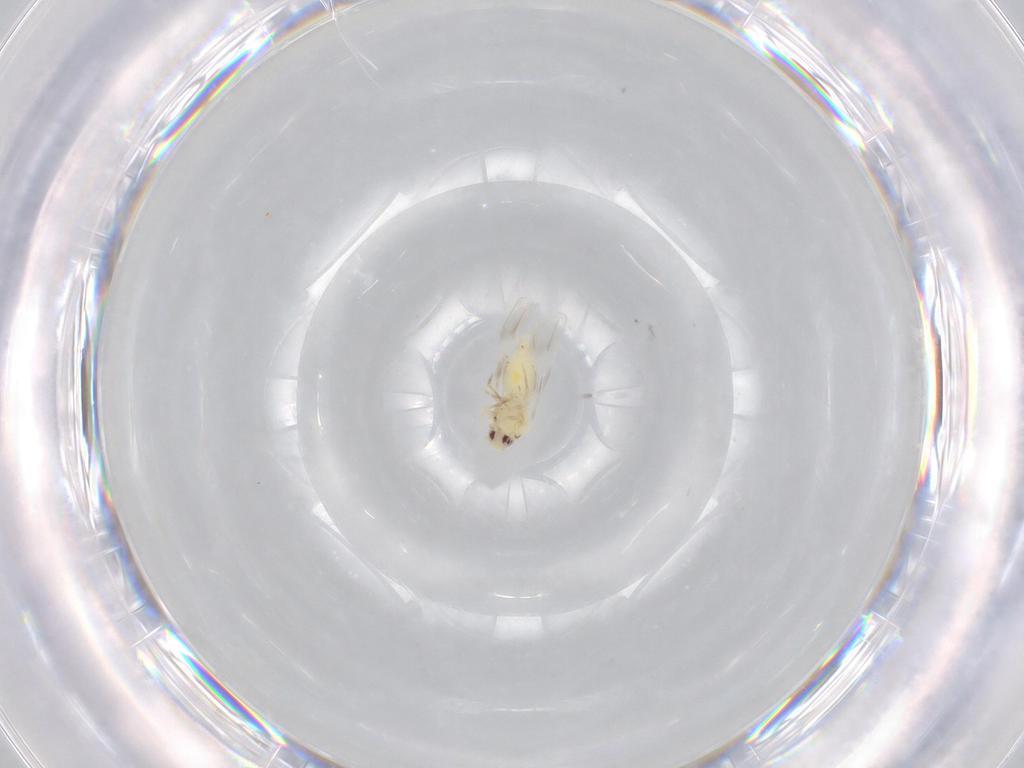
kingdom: Animalia
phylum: Arthropoda
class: Insecta
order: Hemiptera
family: Aleyrodidae
